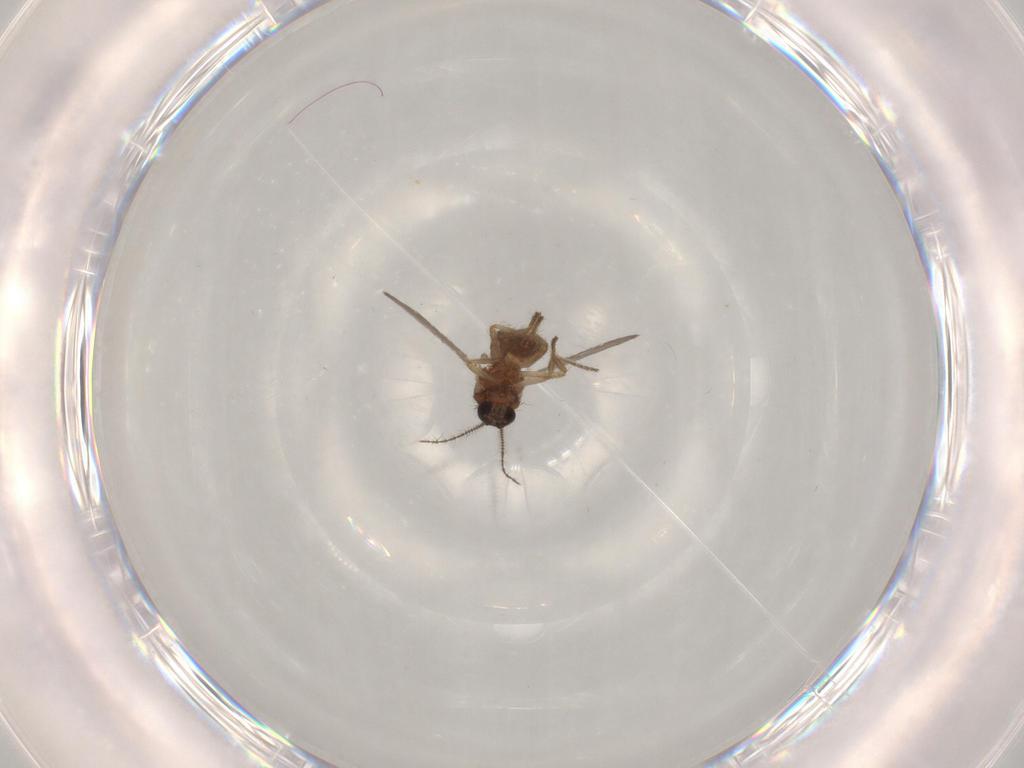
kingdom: Animalia
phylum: Arthropoda
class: Insecta
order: Diptera
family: Ceratopogonidae
